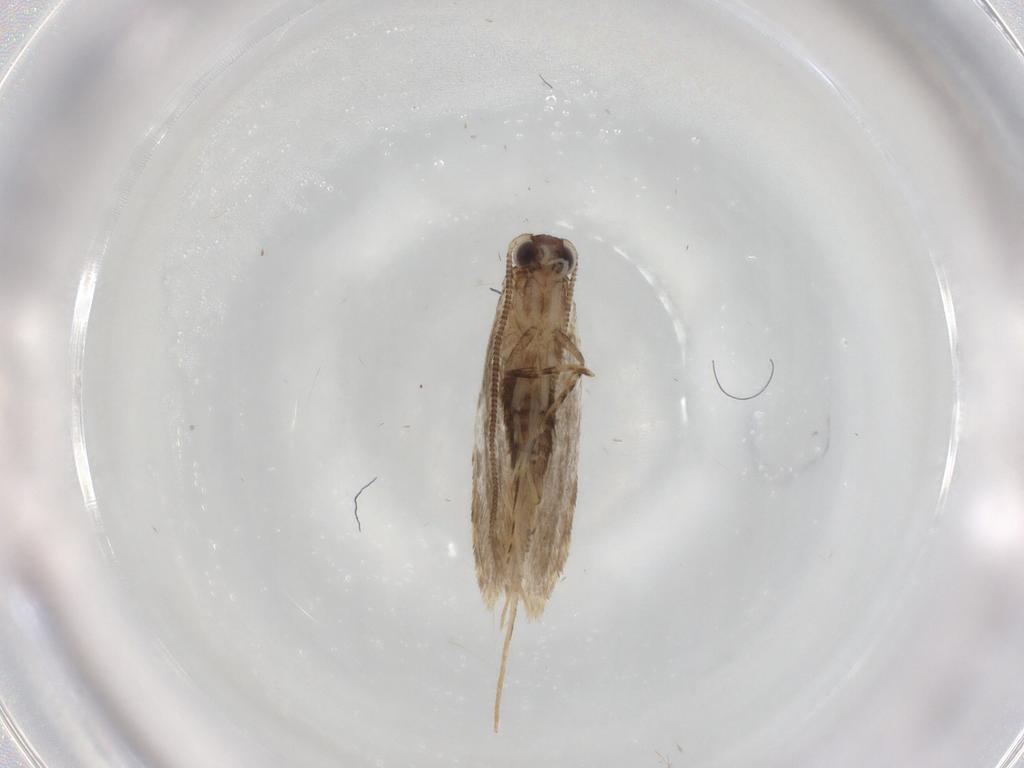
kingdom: Animalia
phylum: Arthropoda
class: Insecta
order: Lepidoptera
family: Tineidae
